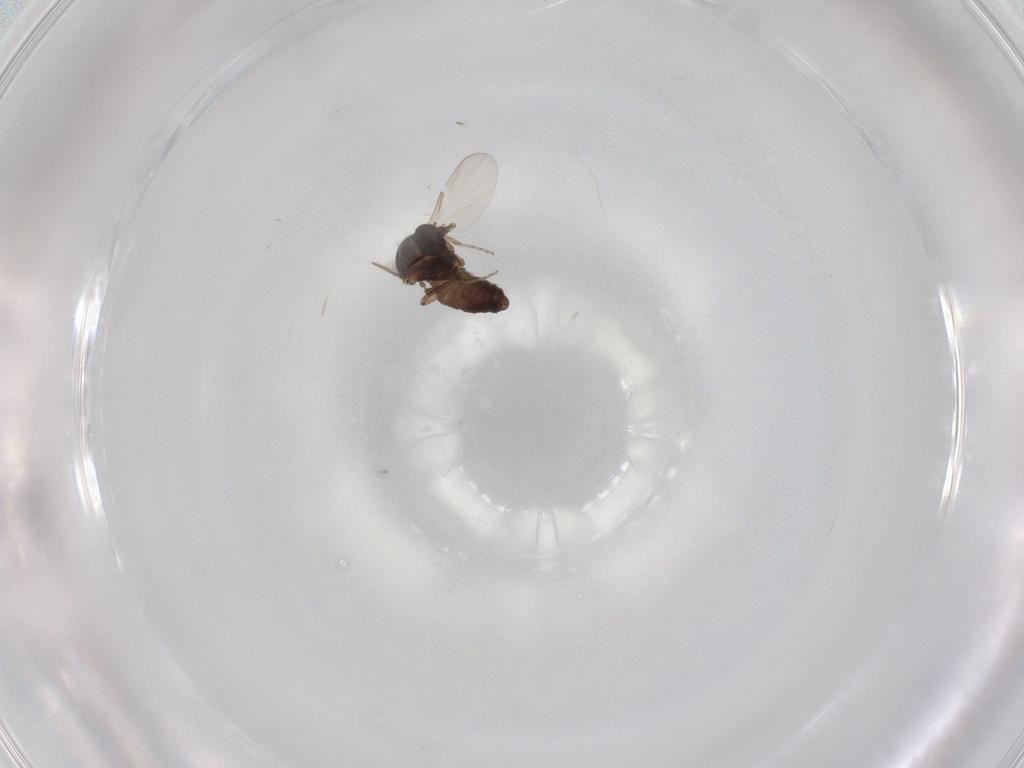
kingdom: Animalia
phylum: Arthropoda
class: Insecta
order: Diptera
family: Ceratopogonidae
